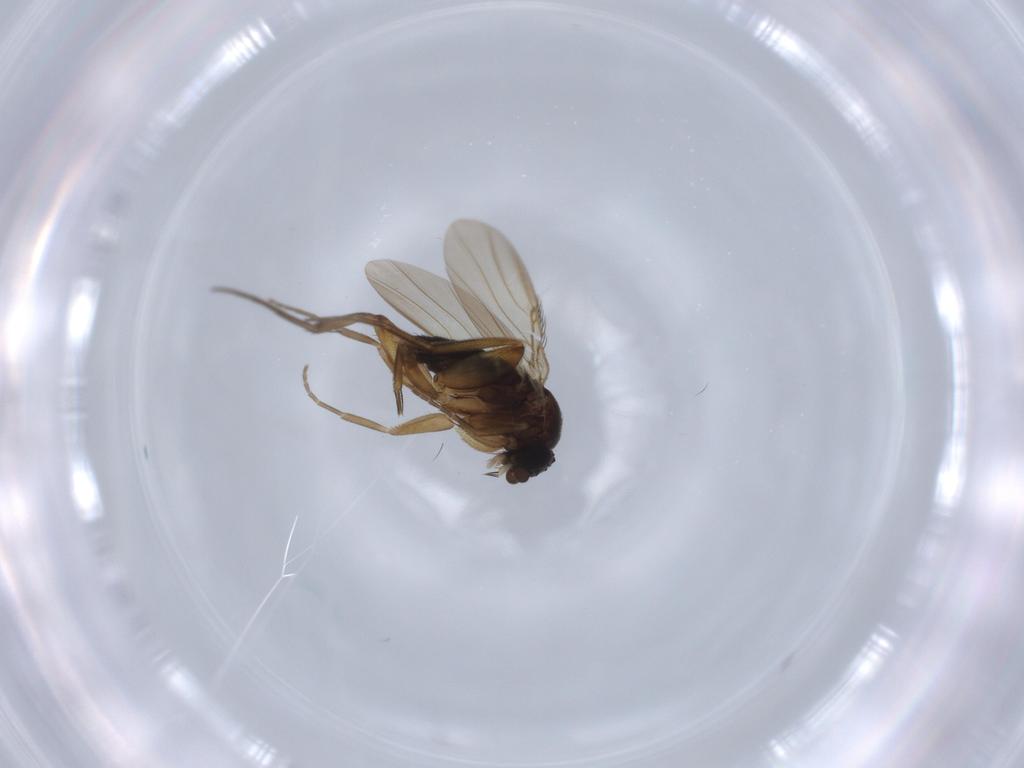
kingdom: Animalia
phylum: Arthropoda
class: Insecta
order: Diptera
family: Phoridae
